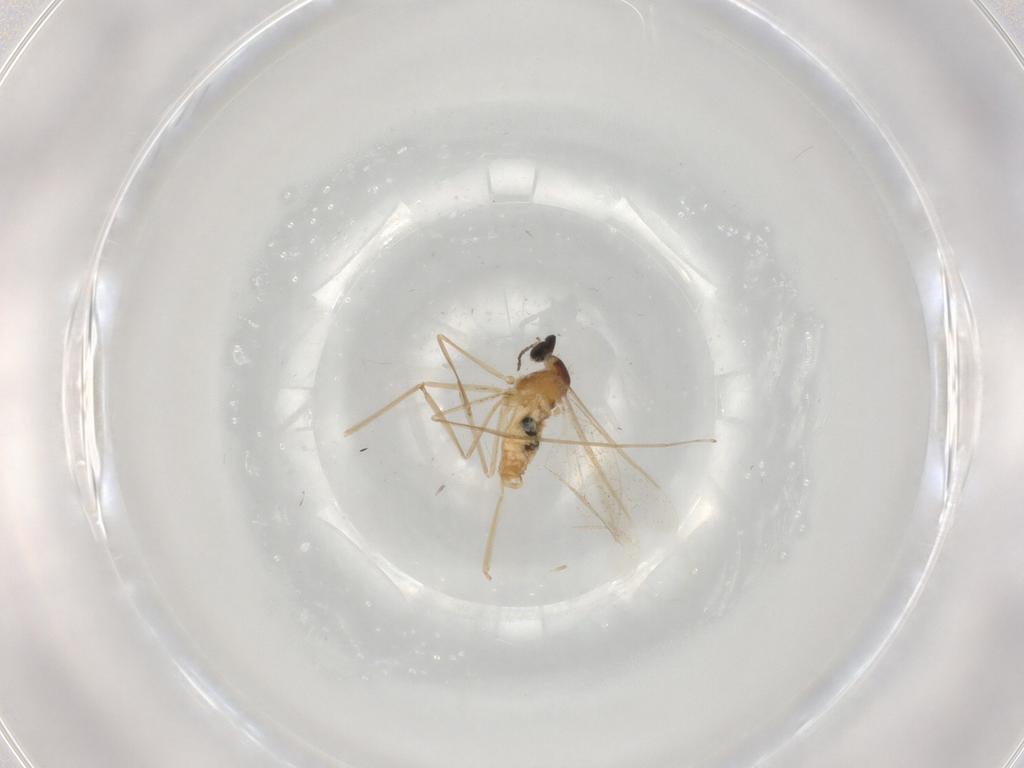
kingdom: Animalia
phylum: Arthropoda
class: Insecta
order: Diptera
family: Cecidomyiidae
